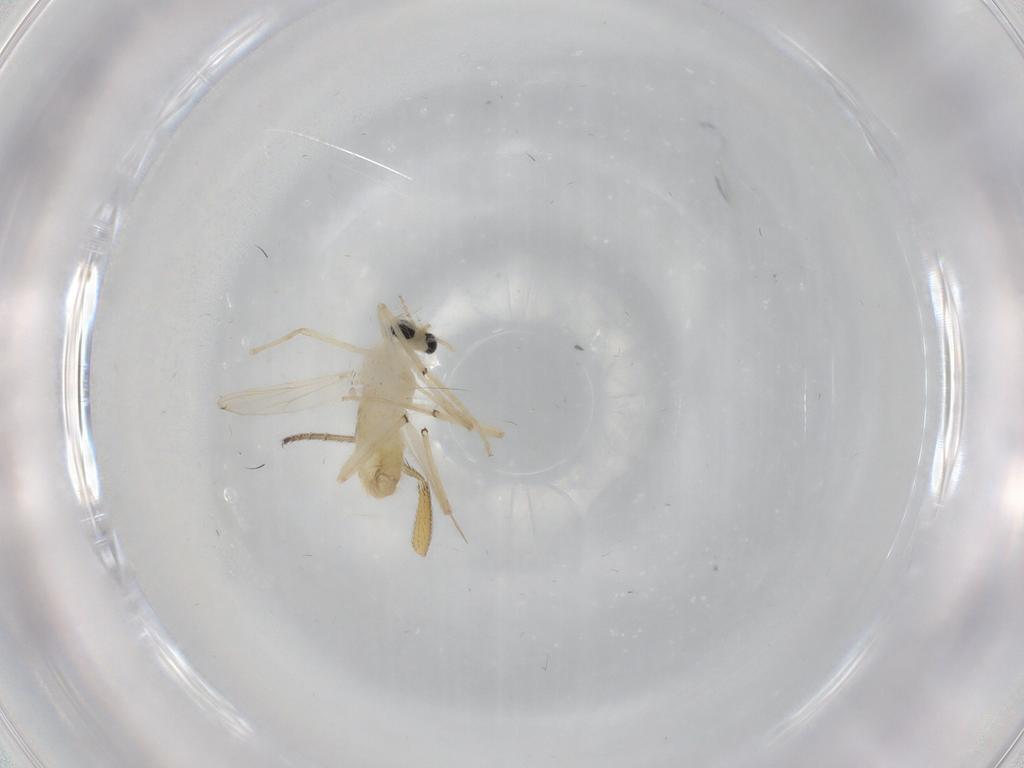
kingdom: Animalia
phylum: Arthropoda
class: Insecta
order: Diptera
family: Chironomidae
